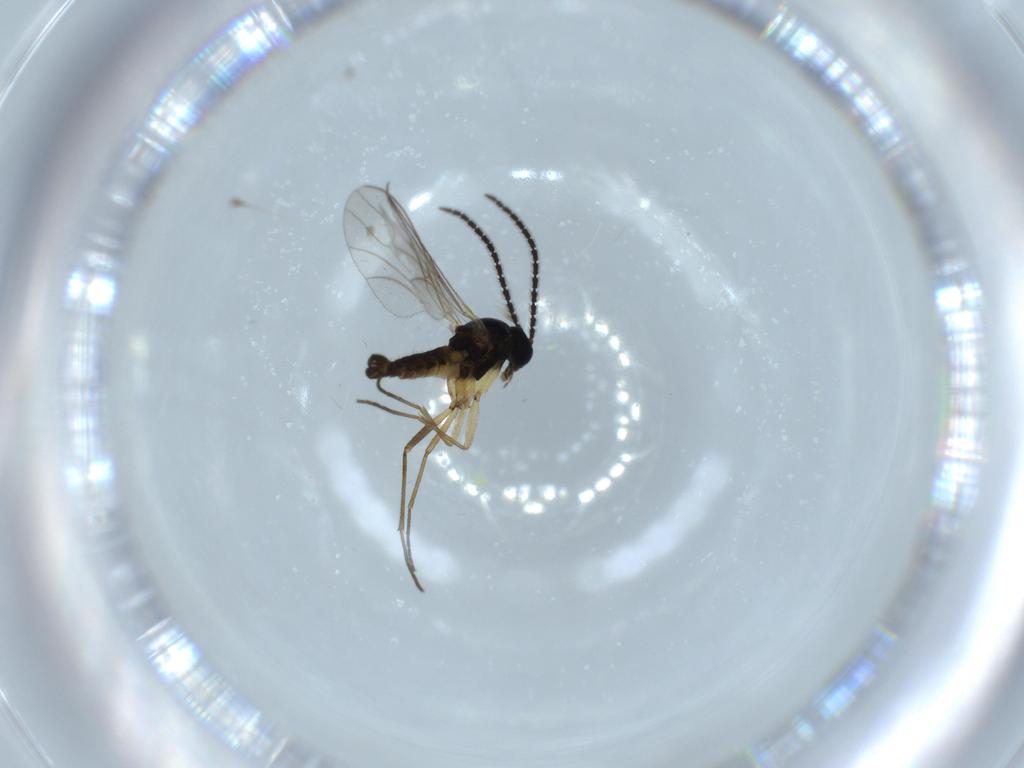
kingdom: Animalia
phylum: Arthropoda
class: Insecta
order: Diptera
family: Sciaridae
